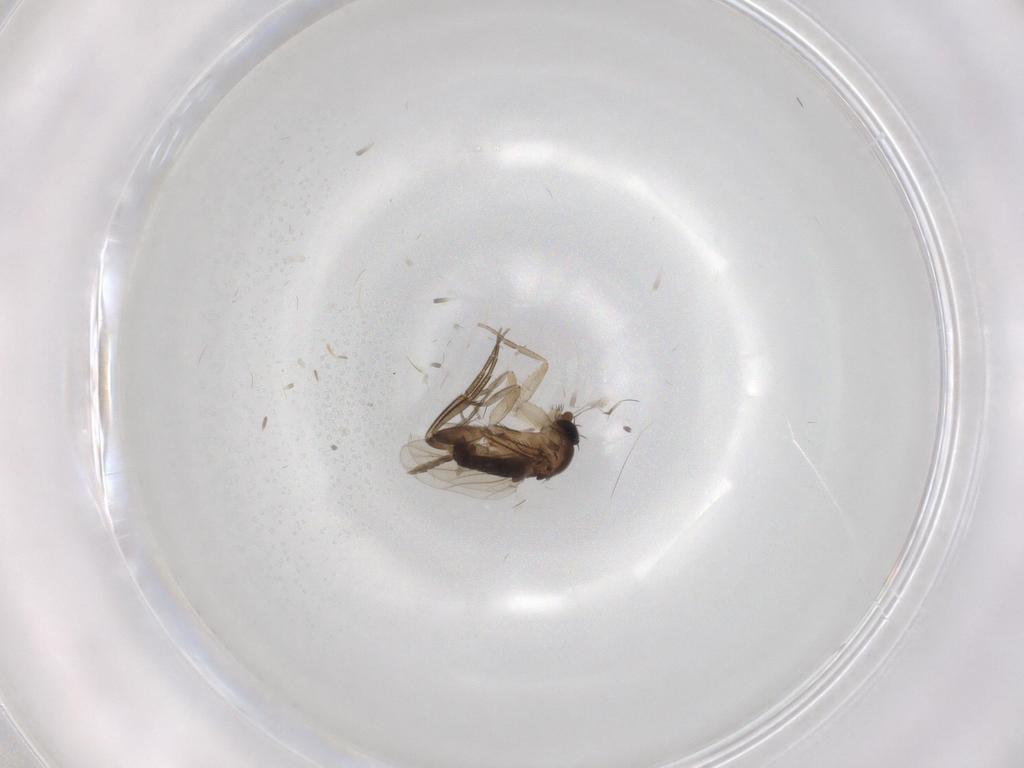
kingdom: Animalia
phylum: Arthropoda
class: Insecta
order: Diptera
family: Phoridae
